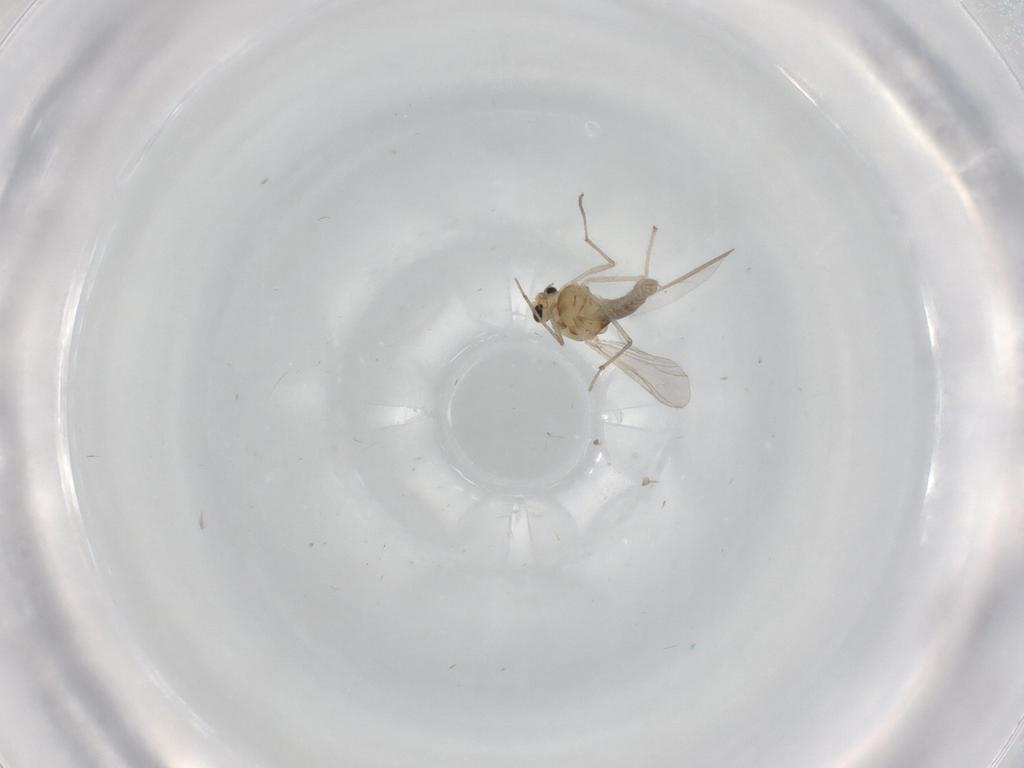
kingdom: Animalia
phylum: Arthropoda
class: Insecta
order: Diptera
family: Chironomidae
